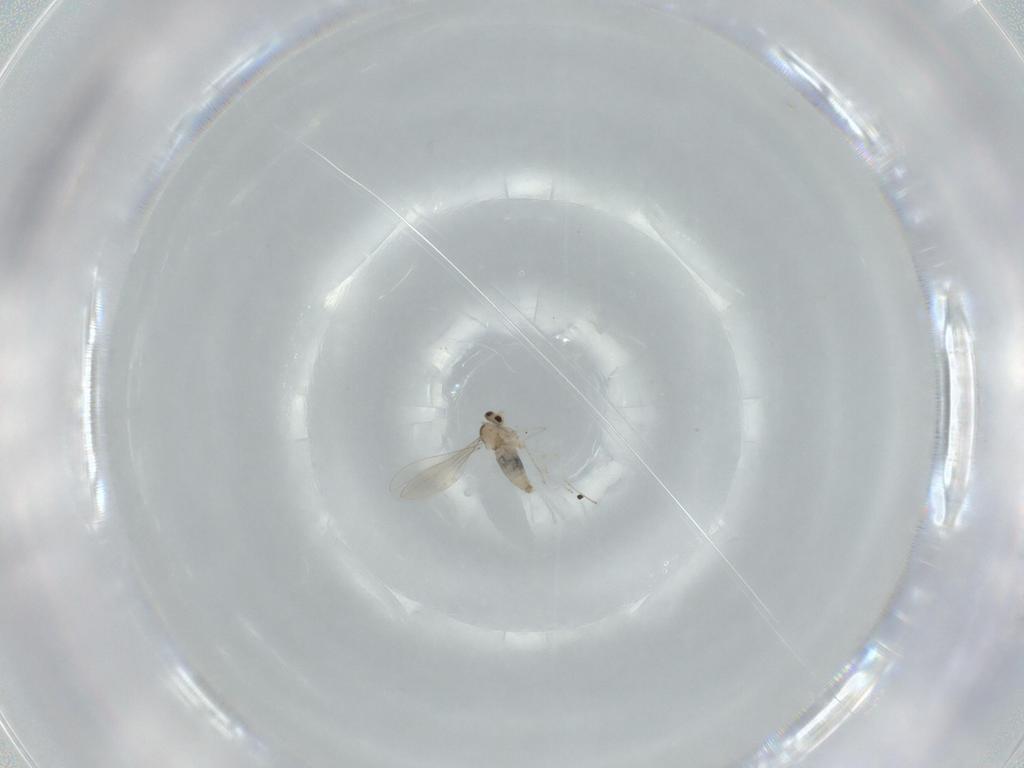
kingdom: Animalia
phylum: Arthropoda
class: Insecta
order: Diptera
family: Cecidomyiidae
